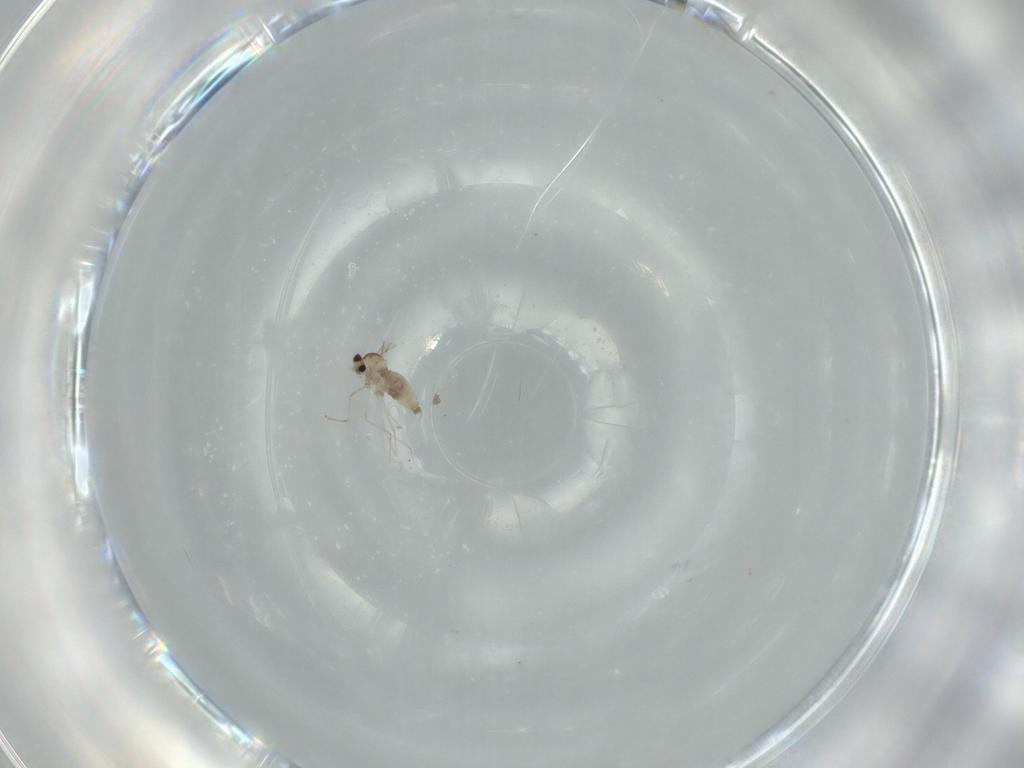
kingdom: Animalia
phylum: Arthropoda
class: Insecta
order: Diptera
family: Cecidomyiidae
